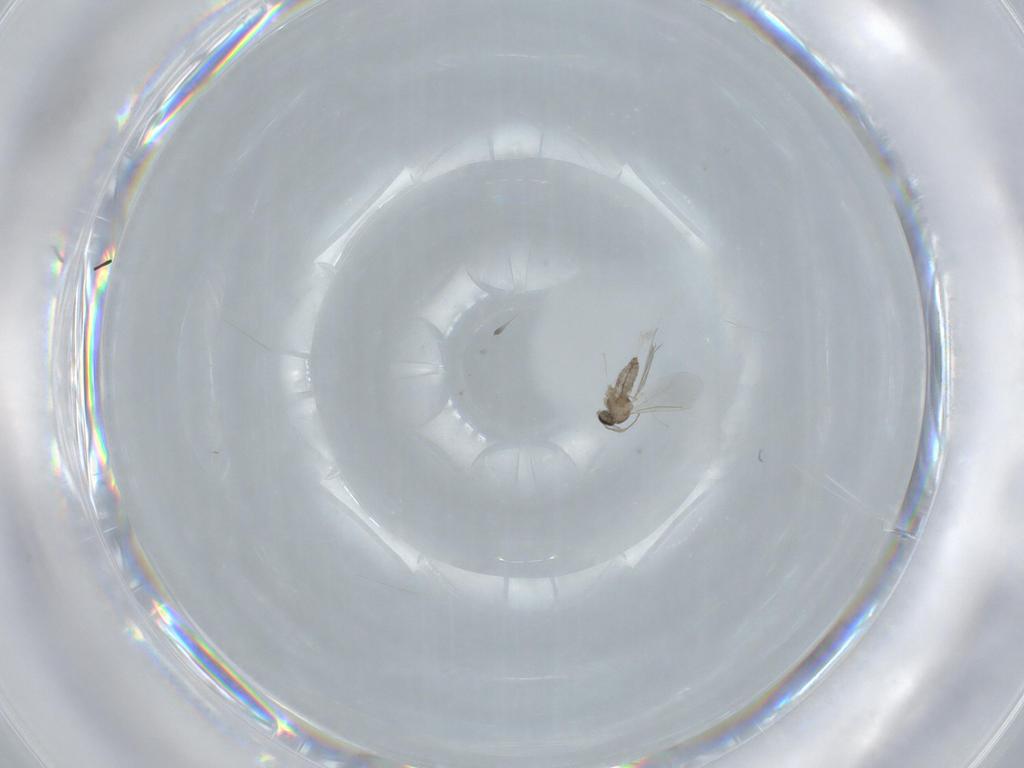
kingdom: Animalia
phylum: Arthropoda
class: Insecta
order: Diptera
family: Cecidomyiidae
